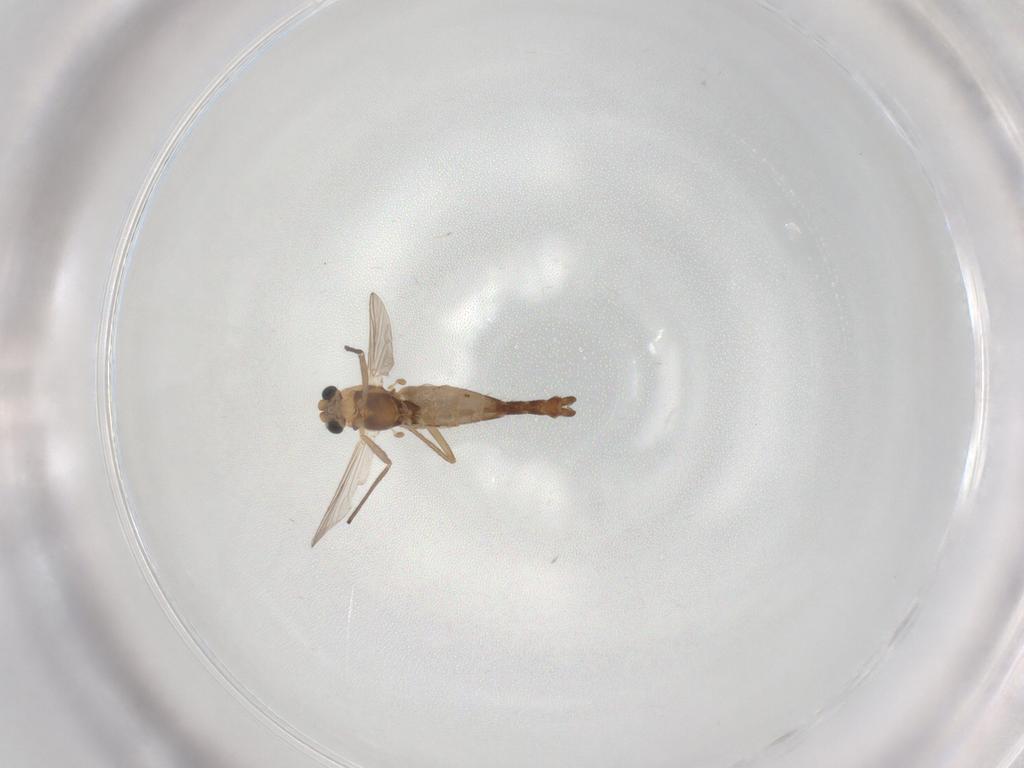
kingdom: Animalia
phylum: Arthropoda
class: Insecta
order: Diptera
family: Chironomidae
